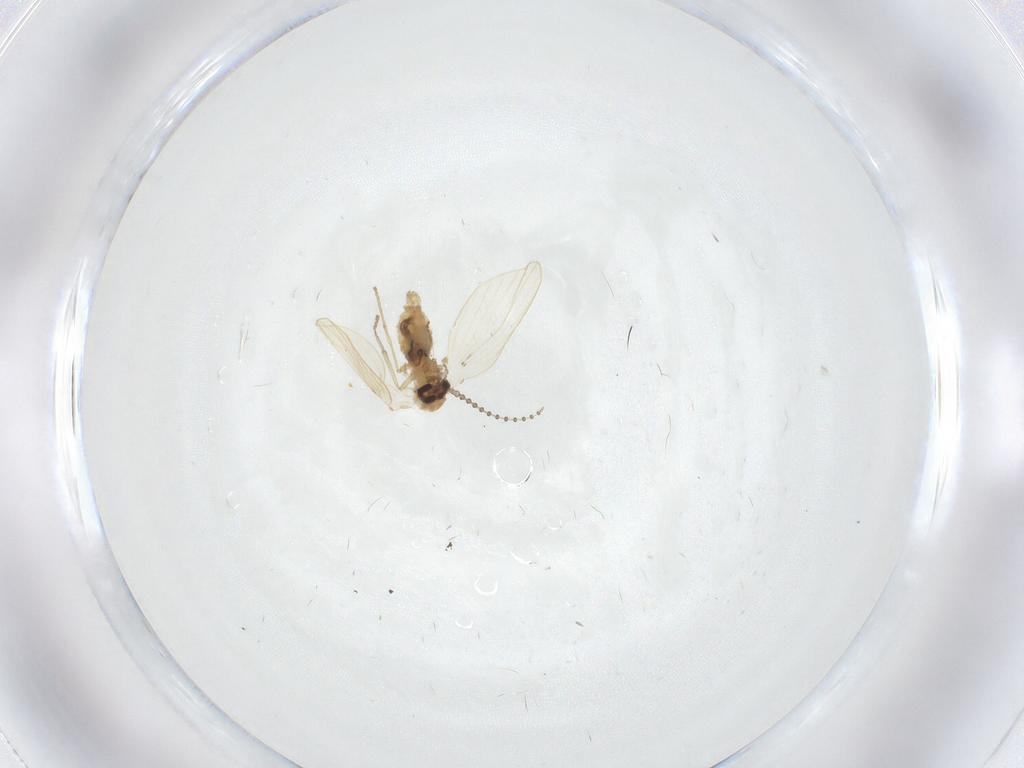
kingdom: Animalia
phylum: Arthropoda
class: Insecta
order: Diptera
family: Psychodidae
